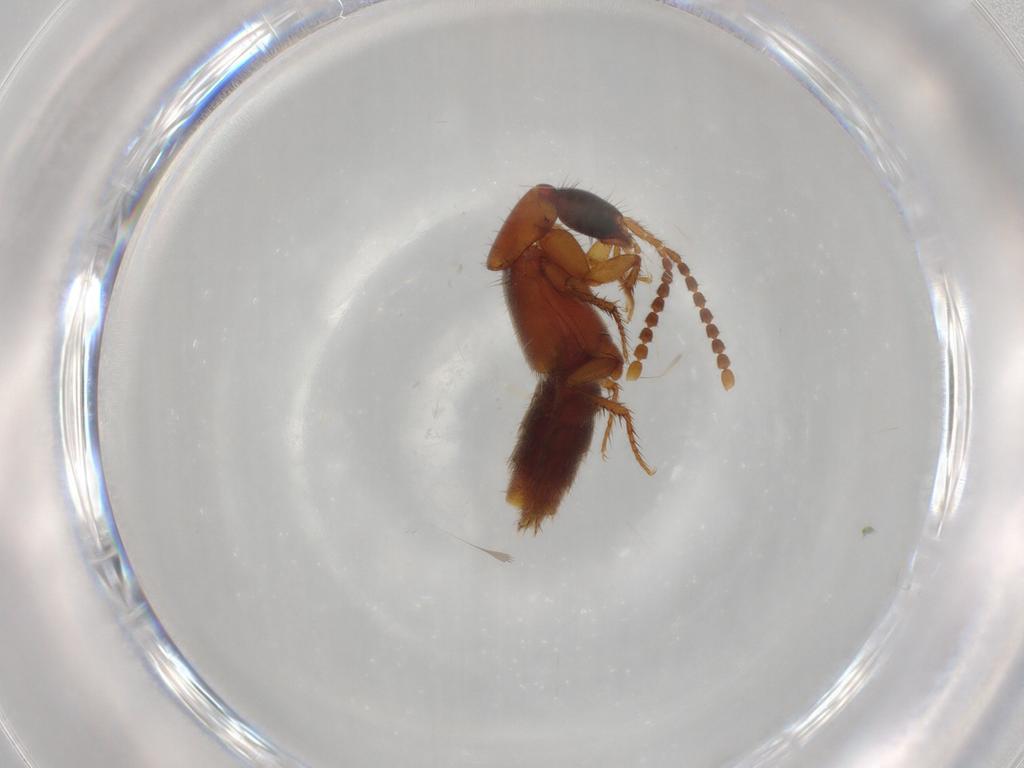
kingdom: Animalia
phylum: Arthropoda
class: Insecta
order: Coleoptera
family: Staphylinidae
